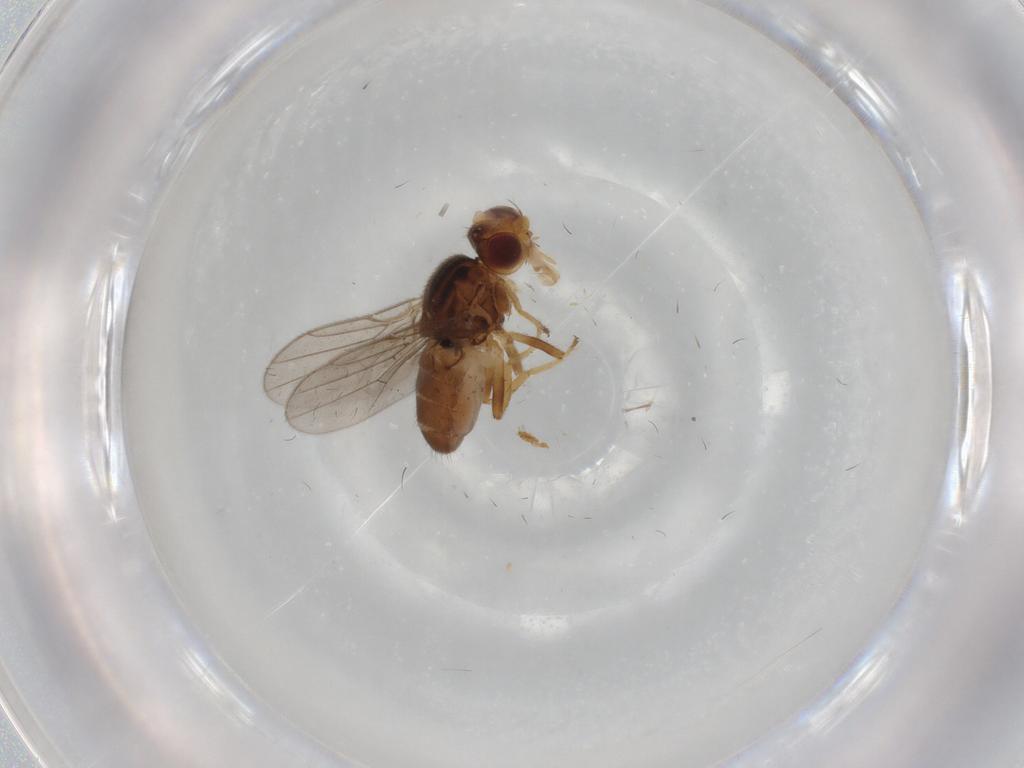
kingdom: Animalia
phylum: Arthropoda
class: Insecta
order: Diptera
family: Chloropidae
